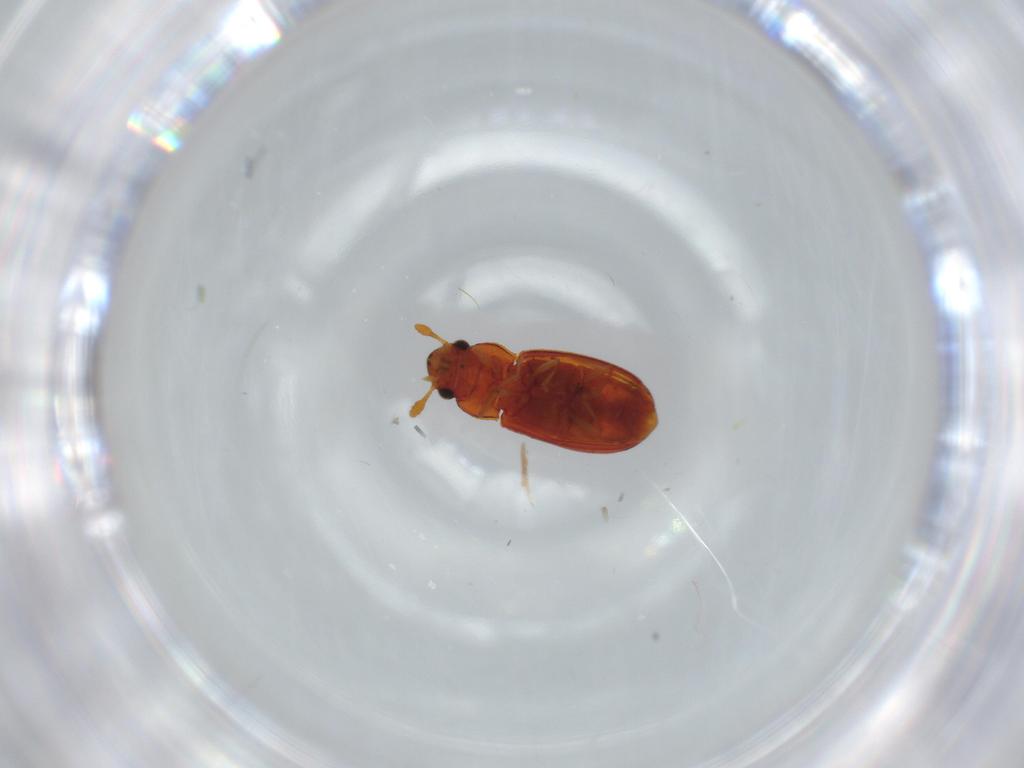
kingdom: Animalia
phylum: Arthropoda
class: Insecta
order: Coleoptera
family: Tenebrionidae
